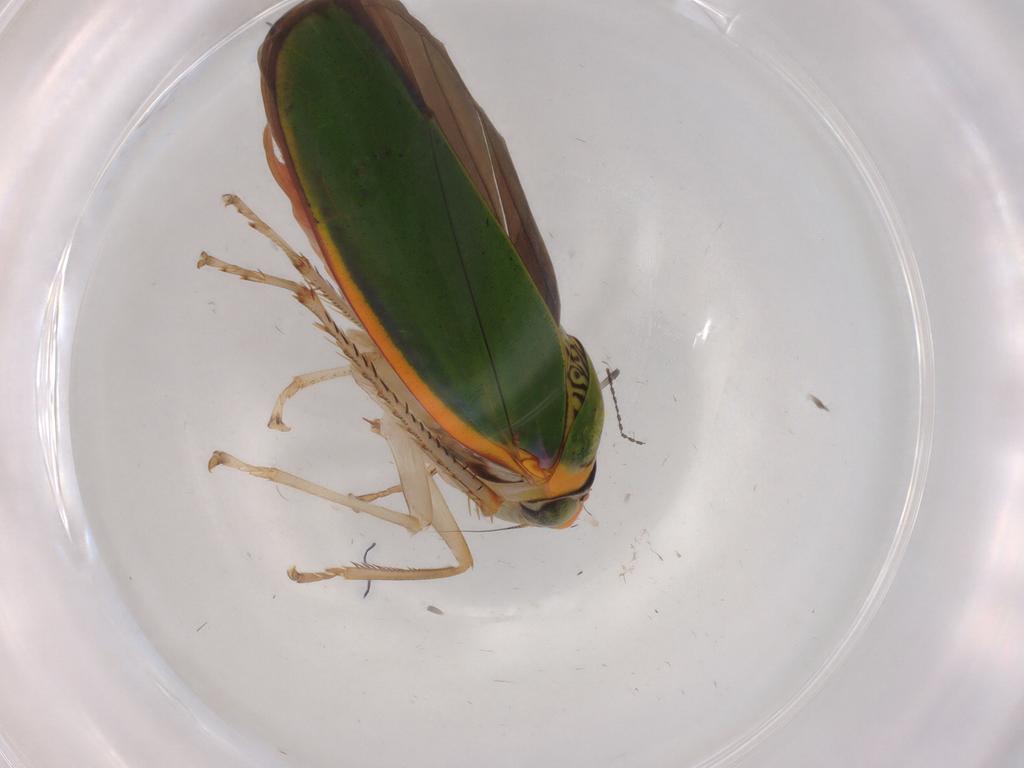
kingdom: Animalia
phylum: Arthropoda
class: Insecta
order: Hemiptera
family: Cicadellidae
